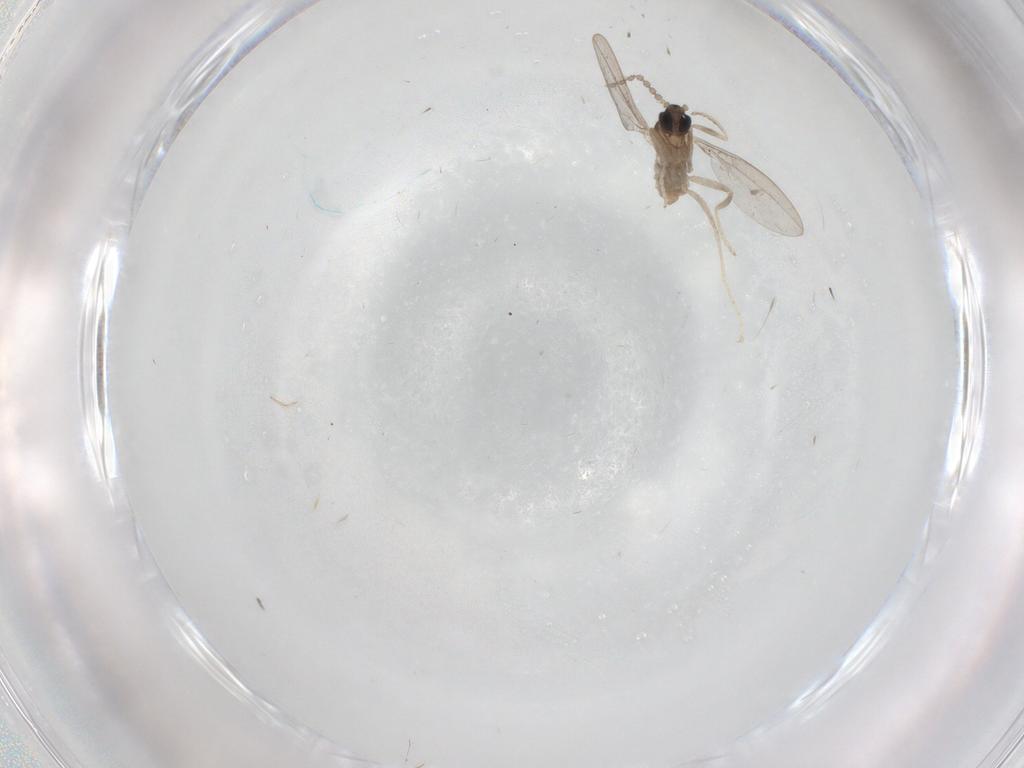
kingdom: Animalia
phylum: Arthropoda
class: Insecta
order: Diptera
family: Cecidomyiidae
